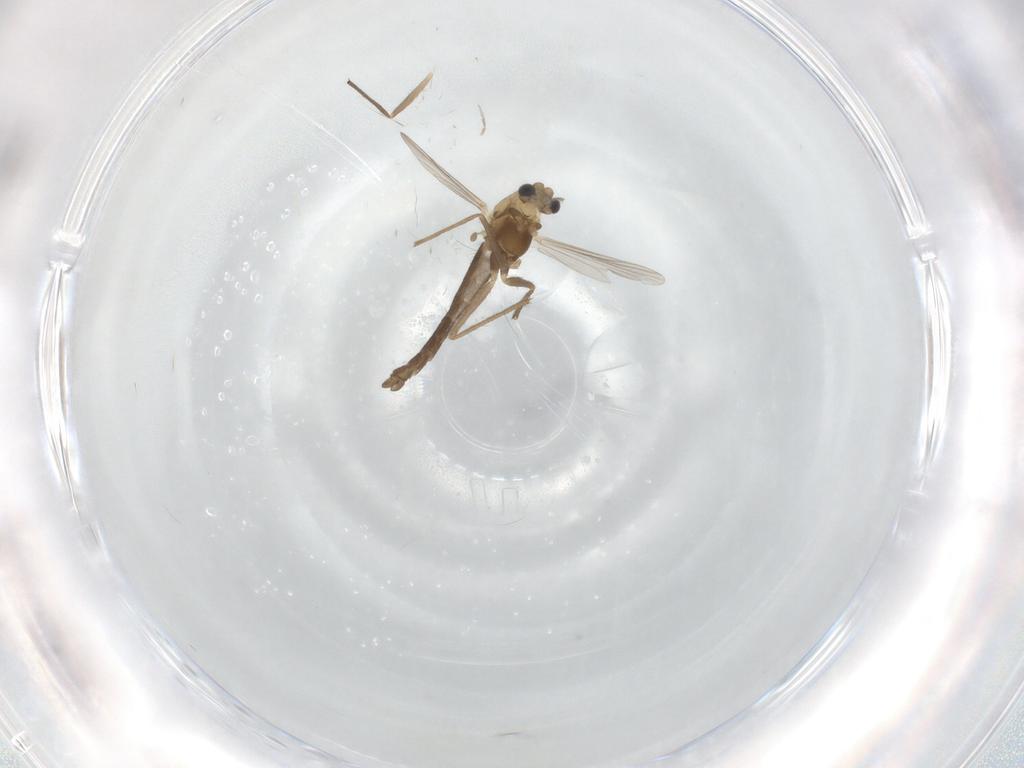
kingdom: Animalia
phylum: Arthropoda
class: Insecta
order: Diptera
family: Chironomidae
